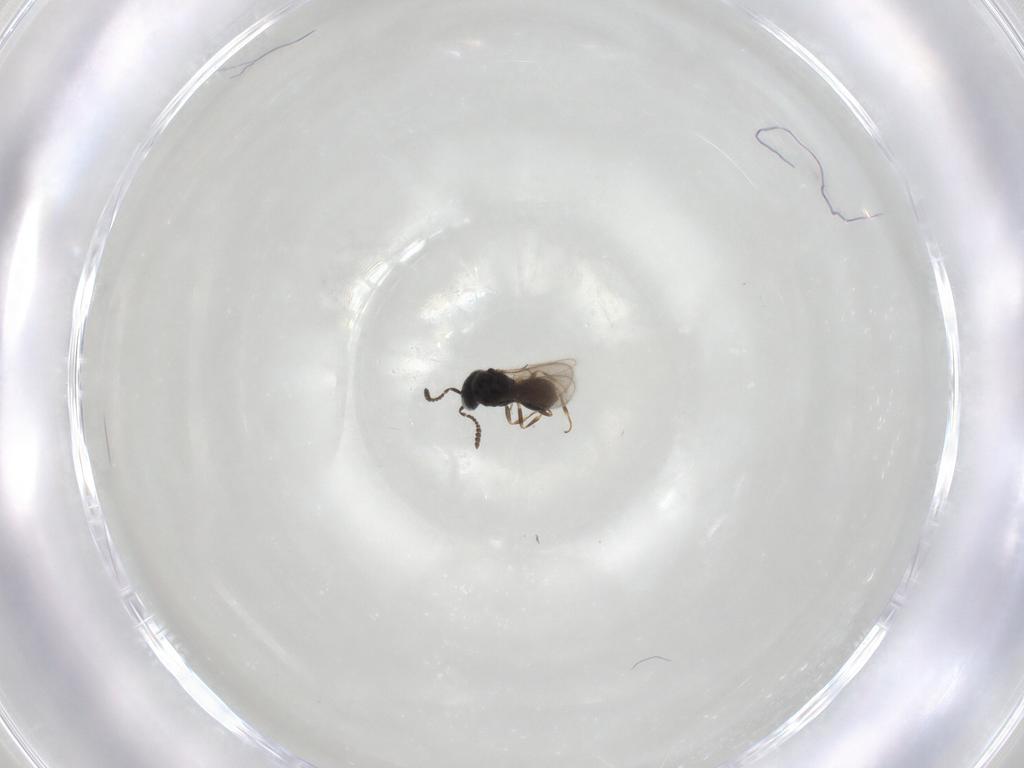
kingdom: Animalia
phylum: Arthropoda
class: Insecta
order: Hymenoptera
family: Scelionidae
